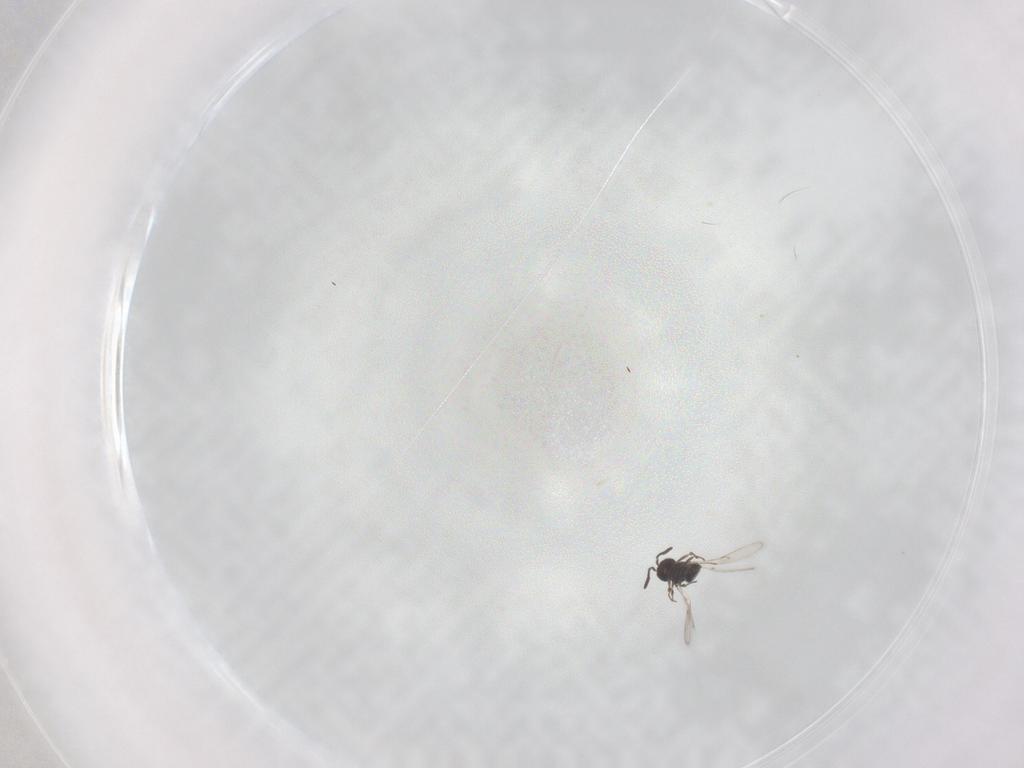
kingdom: Animalia
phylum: Arthropoda
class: Insecta
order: Hymenoptera
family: Scelionidae
